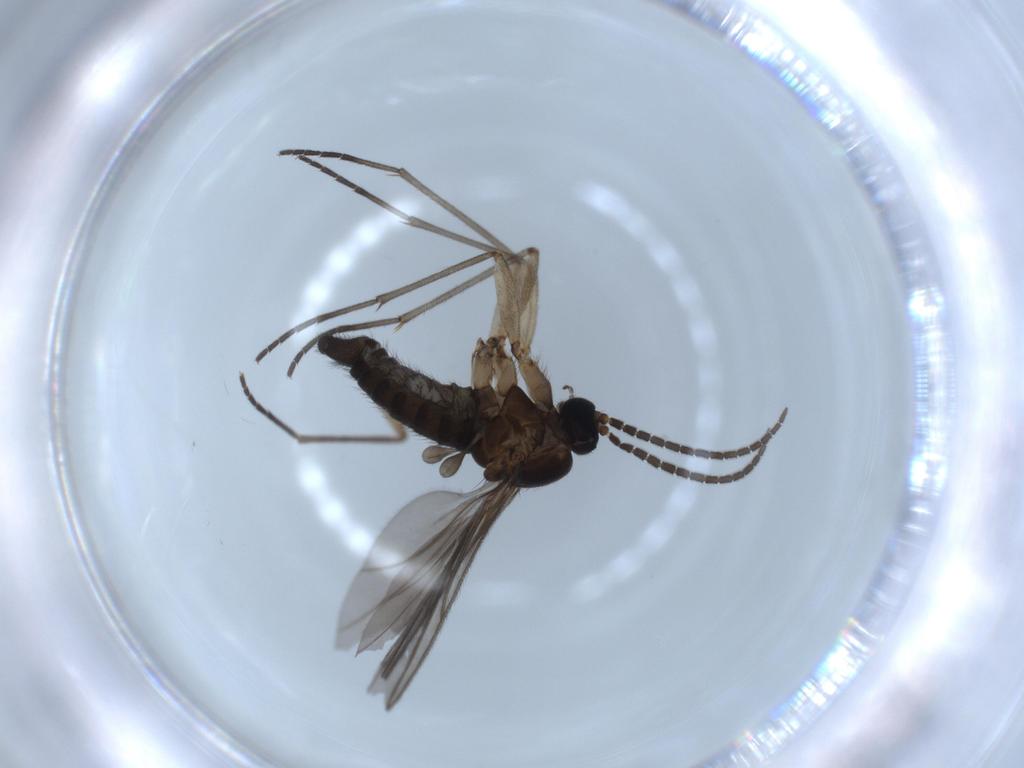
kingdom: Animalia
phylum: Arthropoda
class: Insecta
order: Diptera
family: Sciaridae
